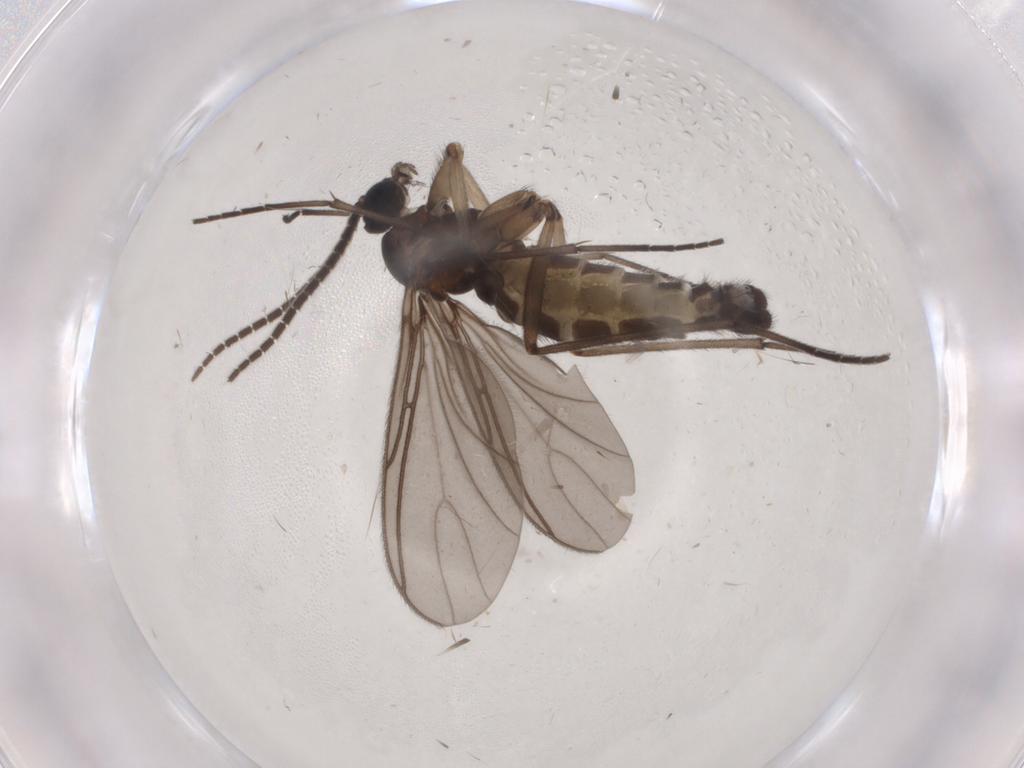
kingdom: Animalia
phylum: Arthropoda
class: Insecta
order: Diptera
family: Sciaridae
